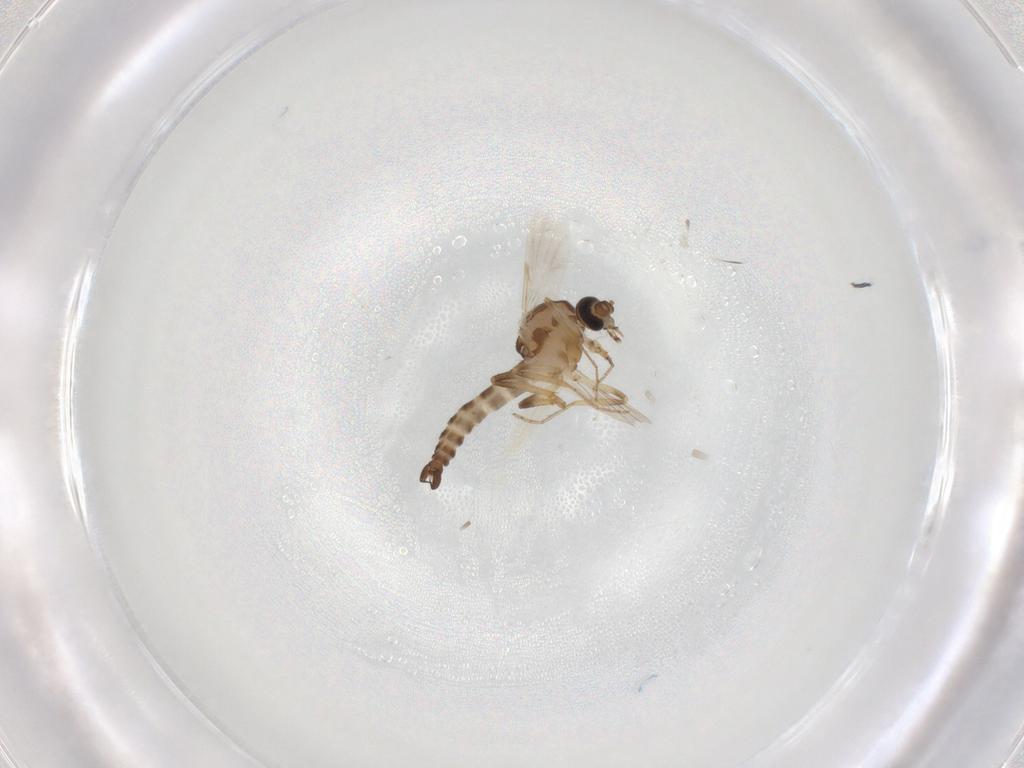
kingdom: Animalia
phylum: Arthropoda
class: Insecta
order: Diptera
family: Ceratopogonidae
